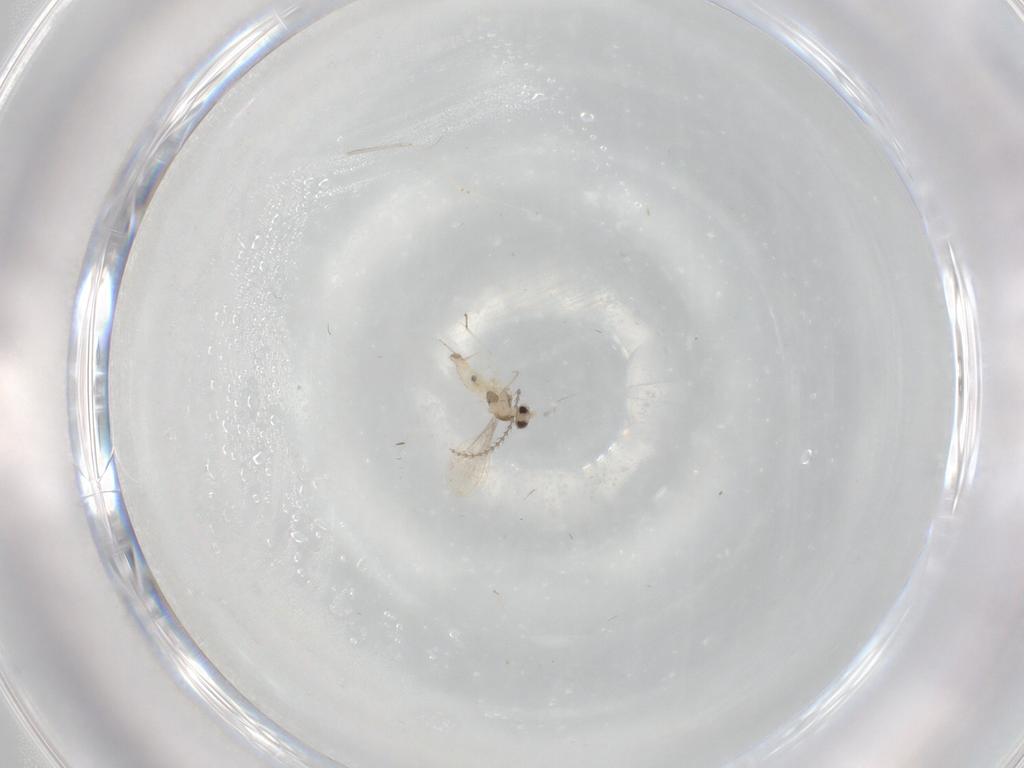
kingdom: Animalia
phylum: Arthropoda
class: Insecta
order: Diptera
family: Cecidomyiidae
